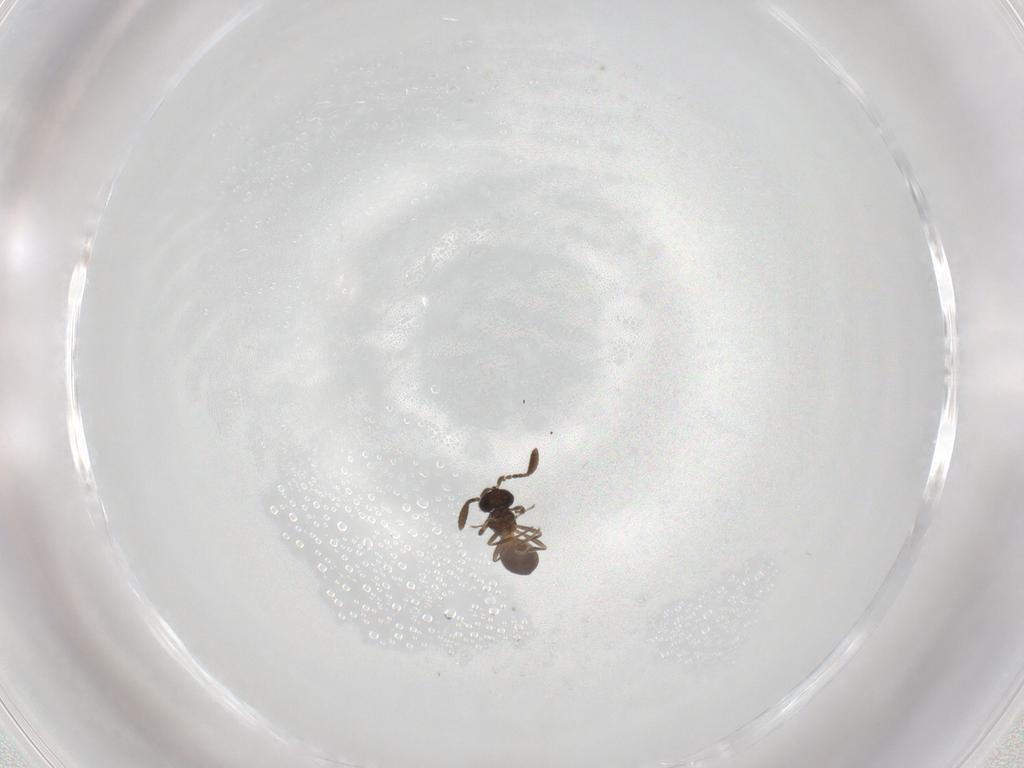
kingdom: Animalia
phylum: Arthropoda
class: Insecta
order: Hymenoptera
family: Scelionidae
